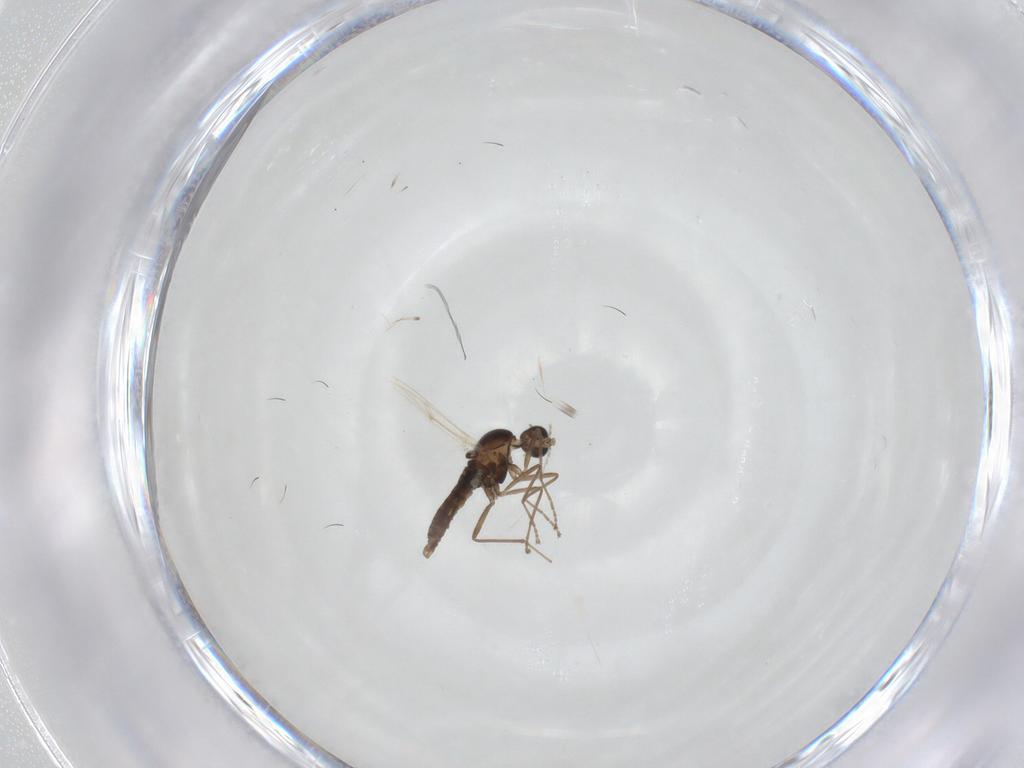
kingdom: Animalia
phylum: Arthropoda
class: Insecta
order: Diptera
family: Cecidomyiidae
